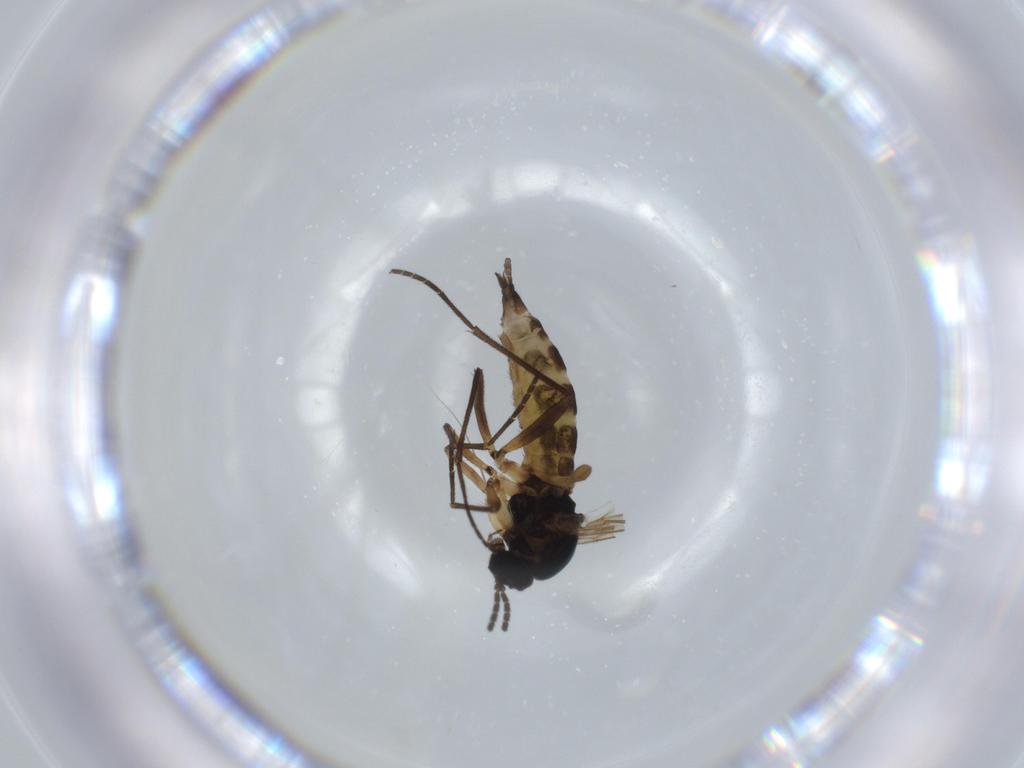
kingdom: Animalia
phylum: Arthropoda
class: Insecta
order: Diptera
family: Sciaridae
